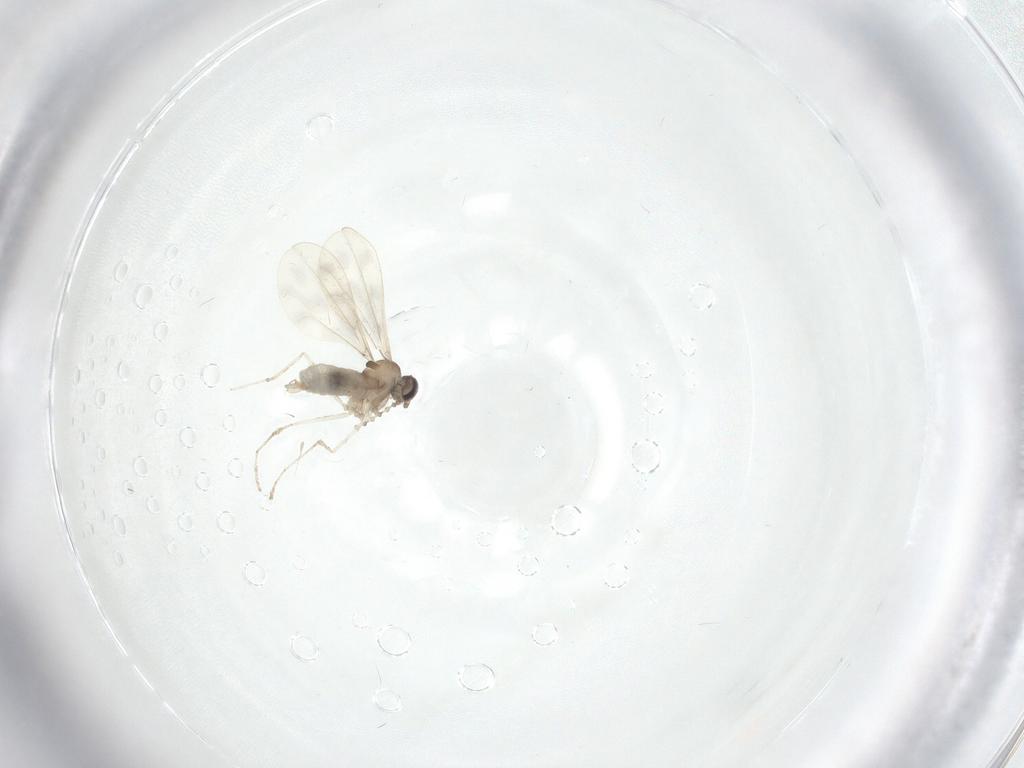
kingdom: Animalia
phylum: Arthropoda
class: Insecta
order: Diptera
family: Cecidomyiidae
